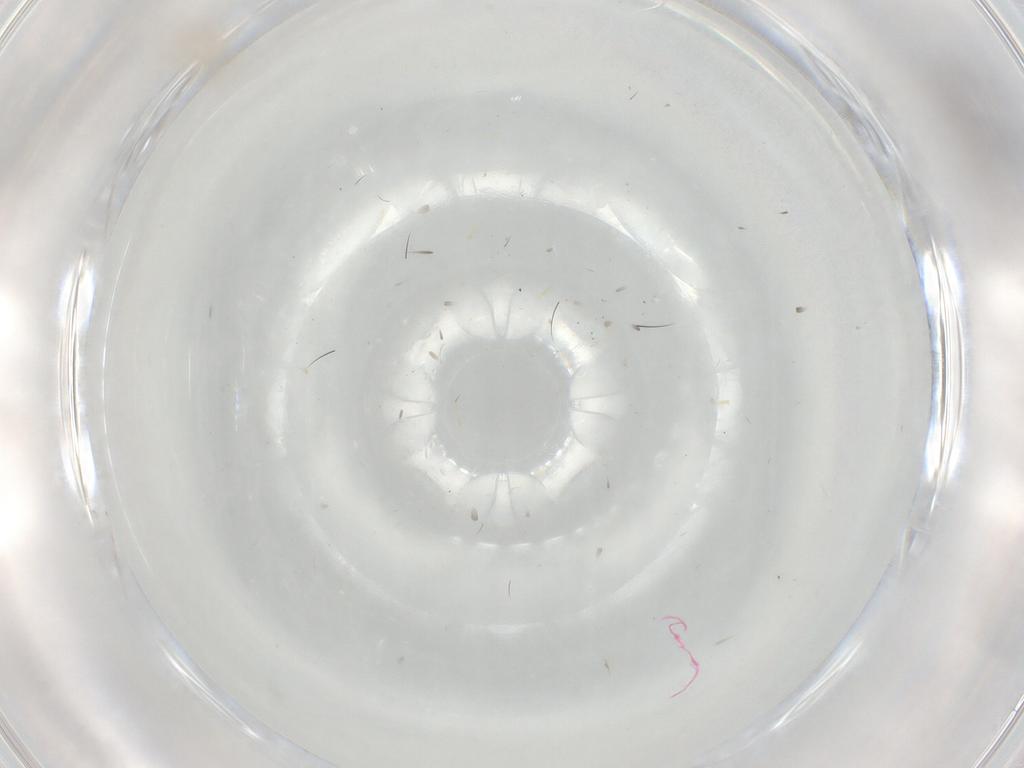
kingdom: Animalia
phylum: Arthropoda
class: Insecta
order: Diptera
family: Cecidomyiidae
